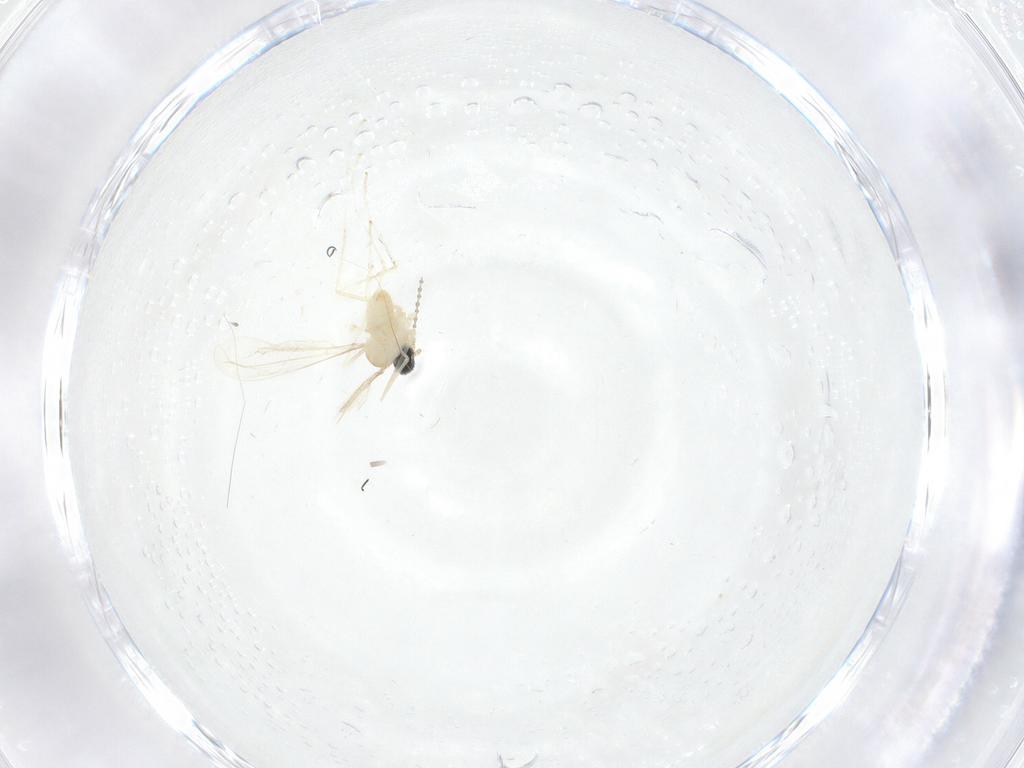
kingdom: Animalia
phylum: Arthropoda
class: Insecta
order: Diptera
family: Cecidomyiidae
